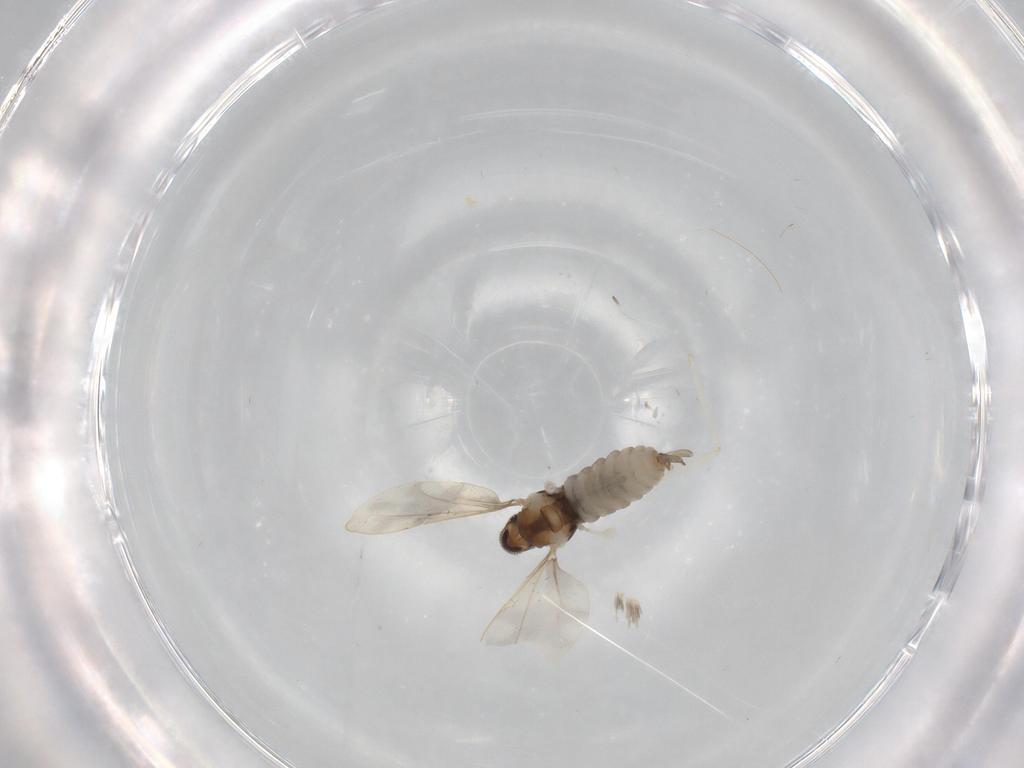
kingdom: Animalia
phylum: Arthropoda
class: Insecta
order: Diptera
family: Cecidomyiidae
